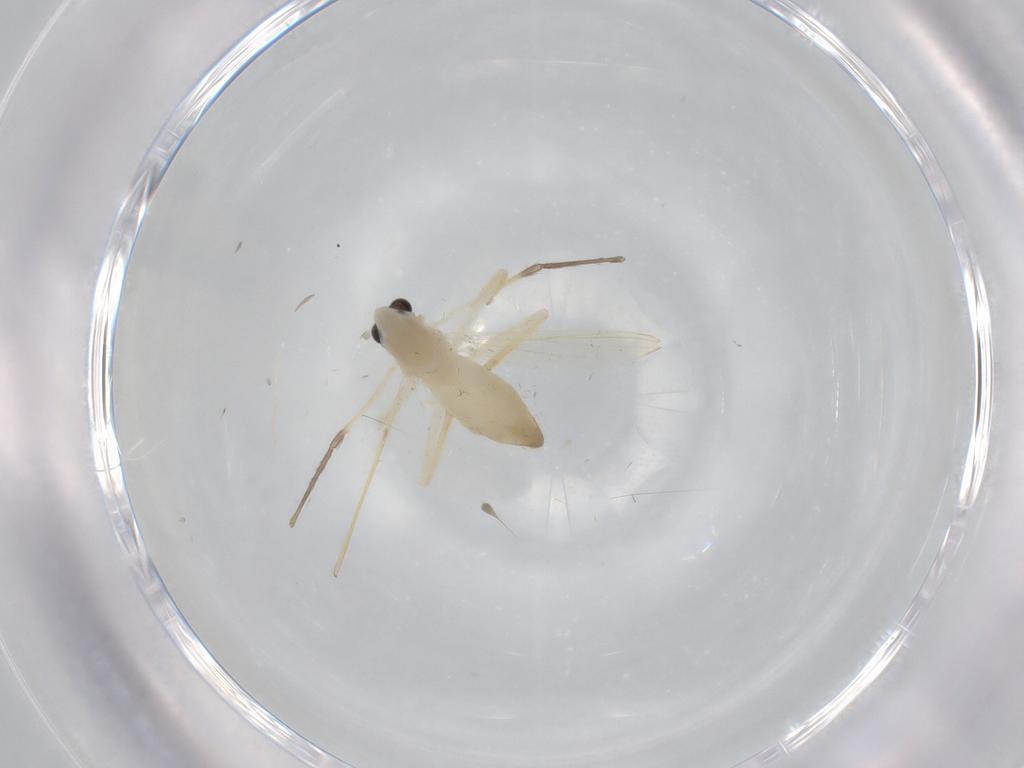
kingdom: Animalia
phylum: Arthropoda
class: Insecta
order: Diptera
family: Chironomidae
